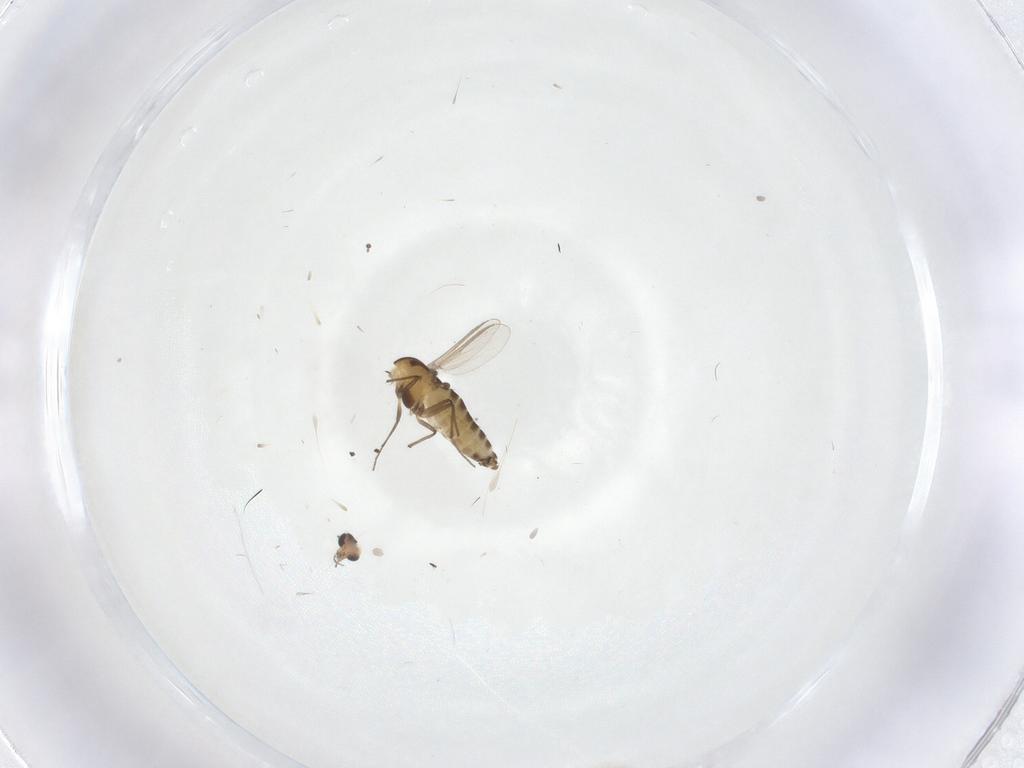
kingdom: Animalia
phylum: Arthropoda
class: Insecta
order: Diptera
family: Chironomidae
